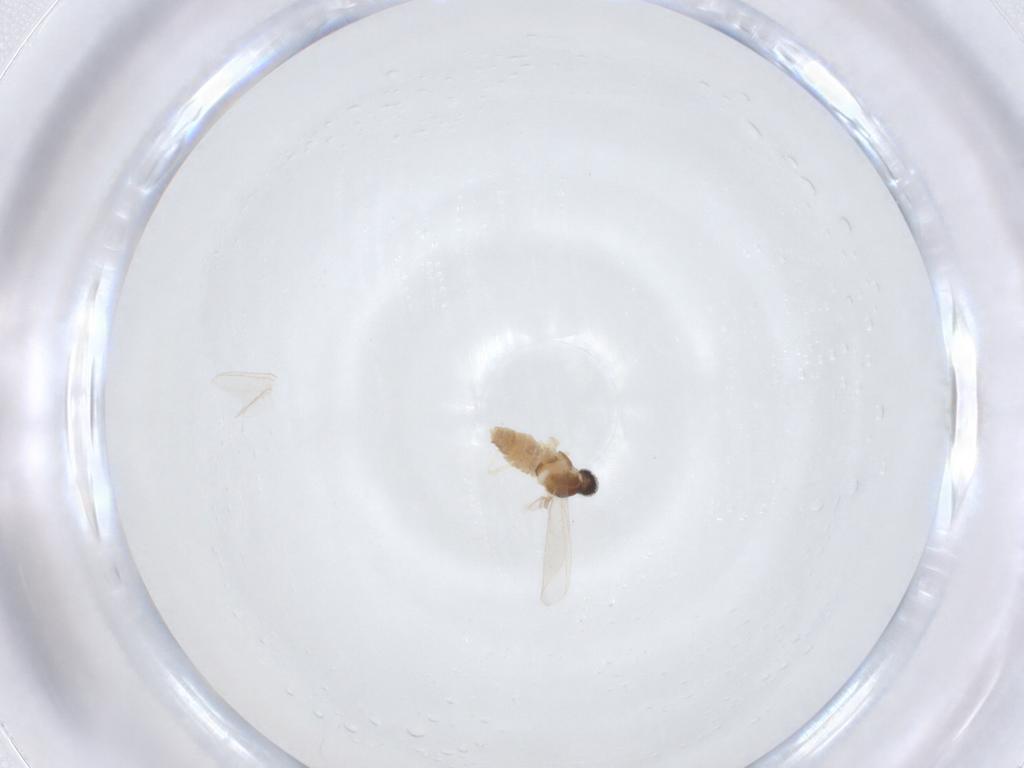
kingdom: Animalia
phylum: Arthropoda
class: Insecta
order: Diptera
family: Cecidomyiidae
